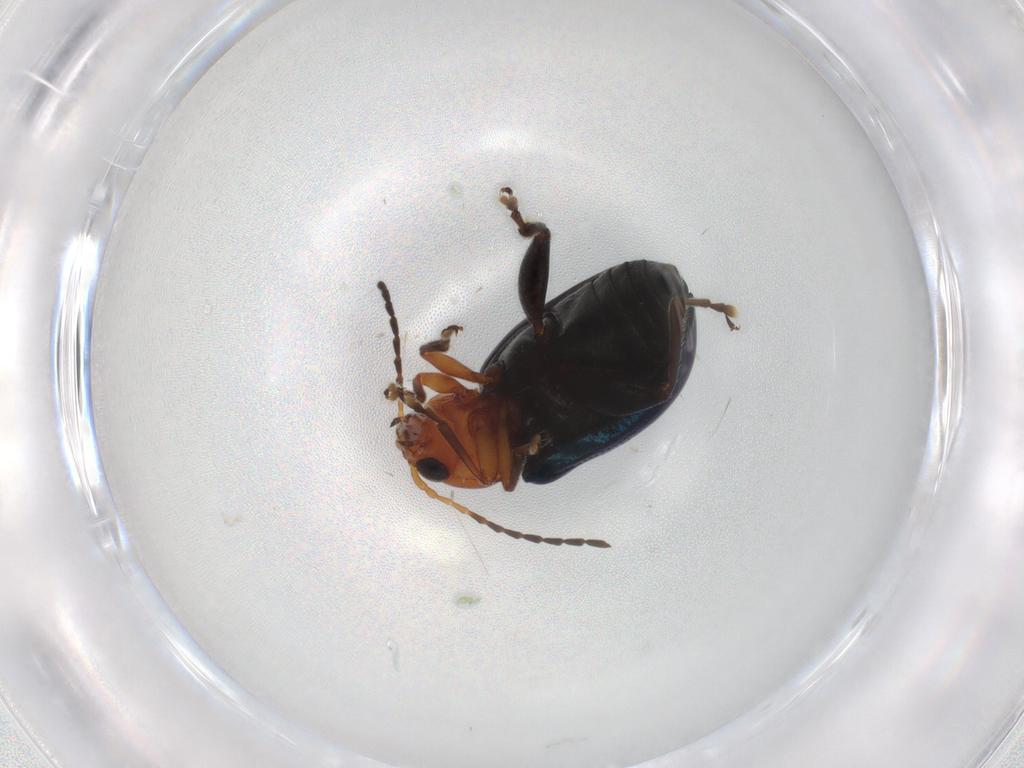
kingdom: Animalia
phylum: Arthropoda
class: Insecta
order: Coleoptera
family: Chrysomelidae
